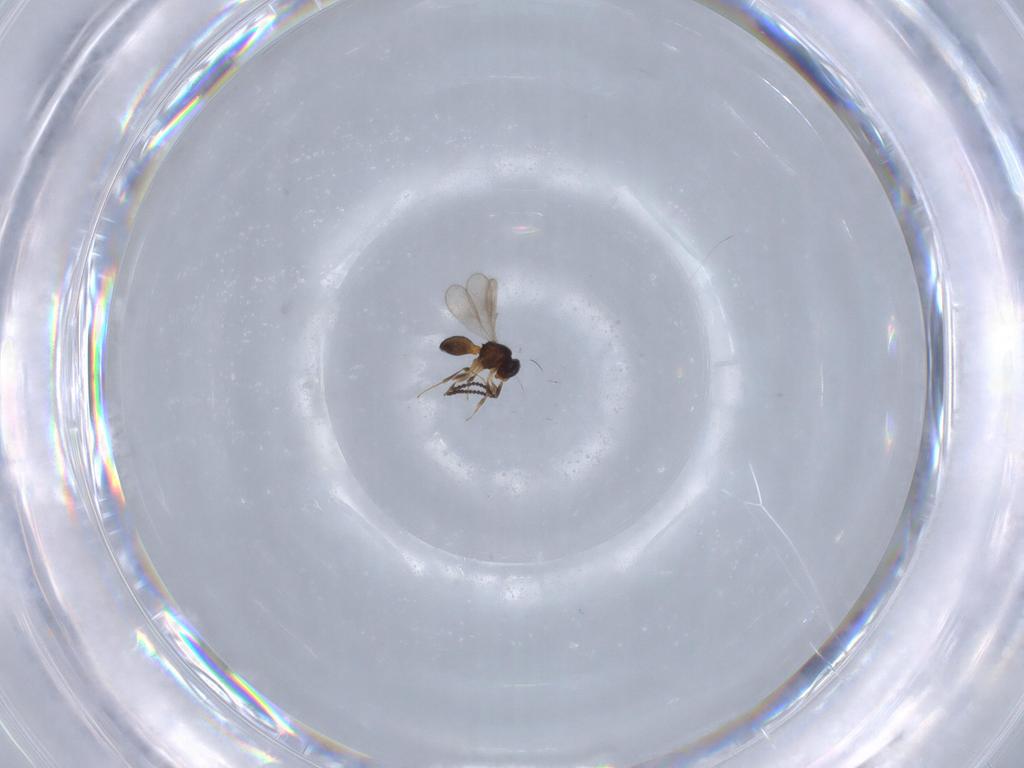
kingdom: Animalia
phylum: Arthropoda
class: Insecta
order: Hymenoptera
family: Scelionidae
